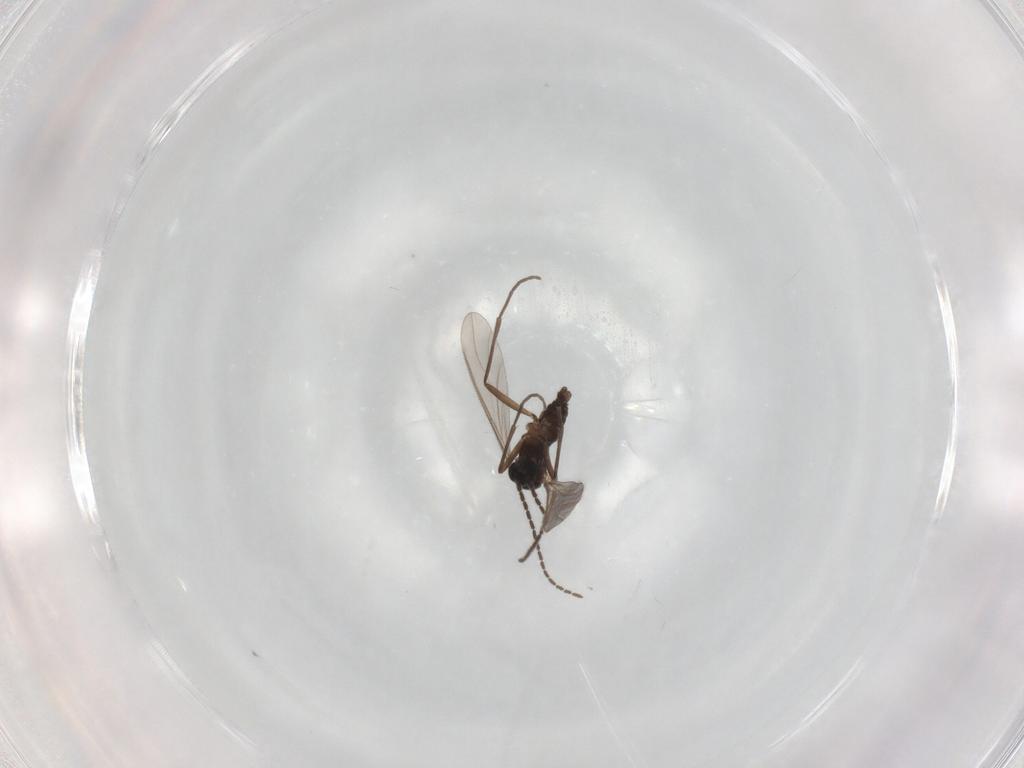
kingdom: Animalia
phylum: Arthropoda
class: Insecta
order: Diptera
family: Sciaridae
